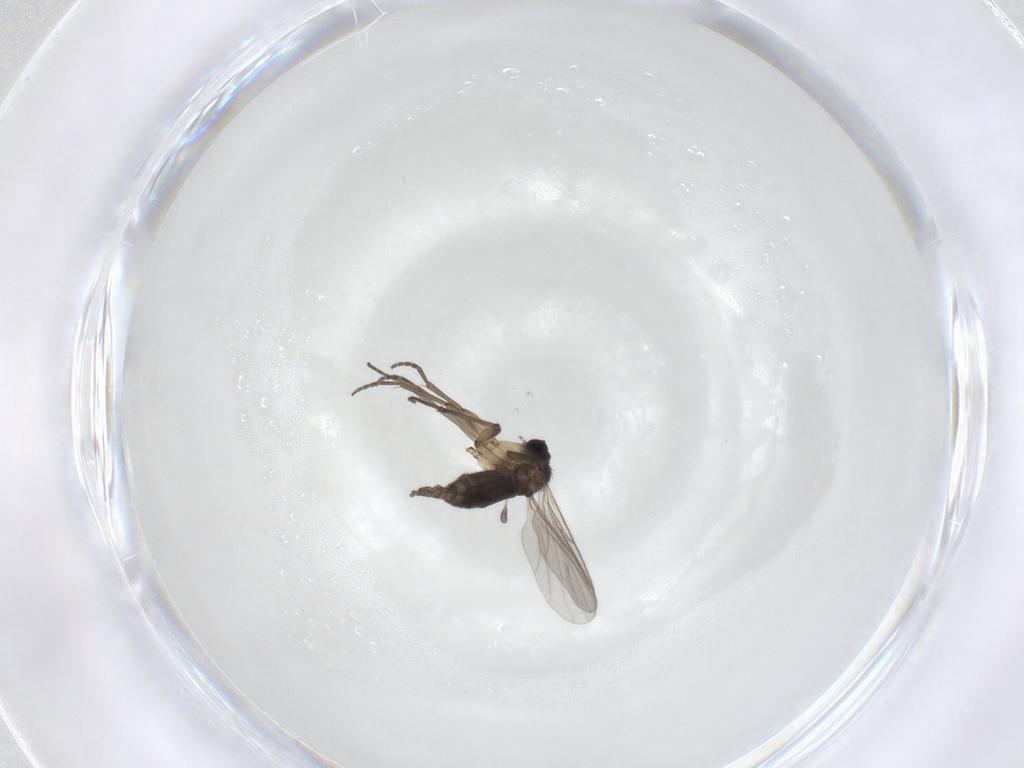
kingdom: Animalia
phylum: Arthropoda
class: Insecta
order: Diptera
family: Sciaridae
